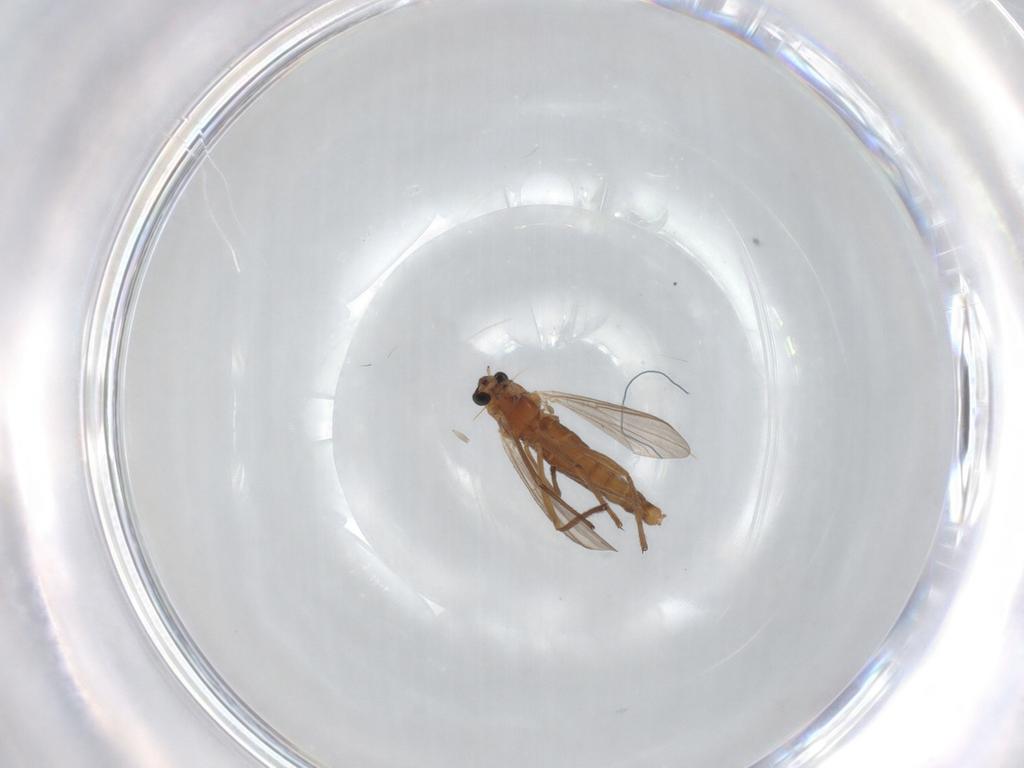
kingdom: Animalia
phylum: Arthropoda
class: Insecta
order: Diptera
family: Chironomidae
